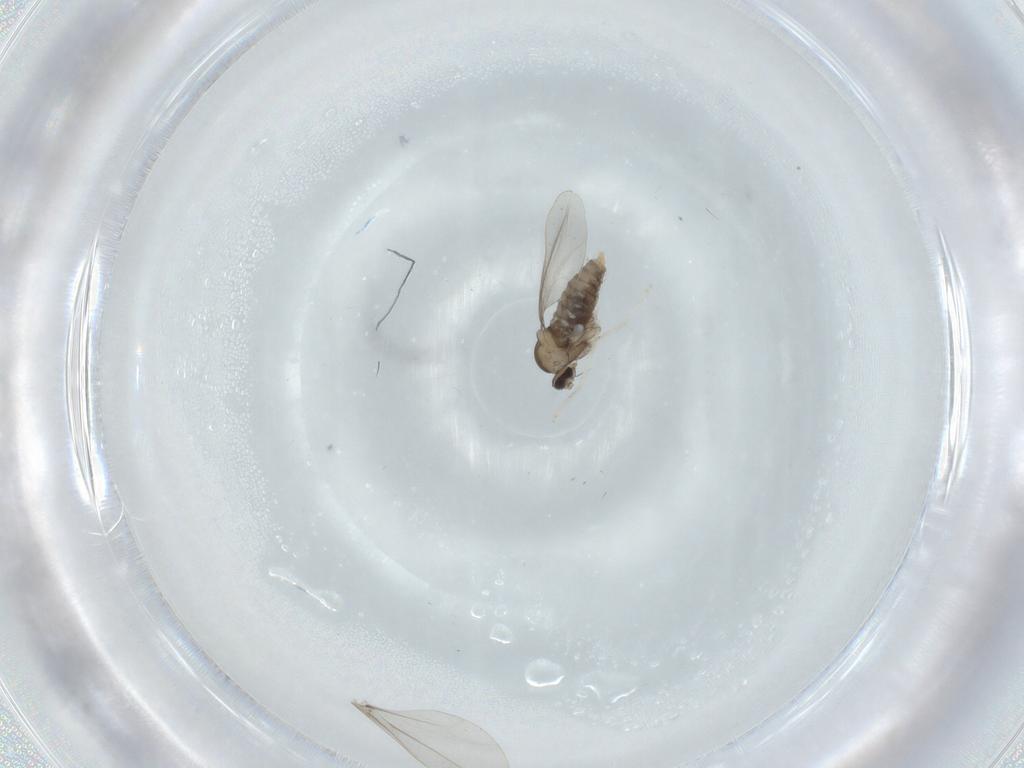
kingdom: Animalia
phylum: Arthropoda
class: Insecta
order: Diptera
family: Cecidomyiidae
